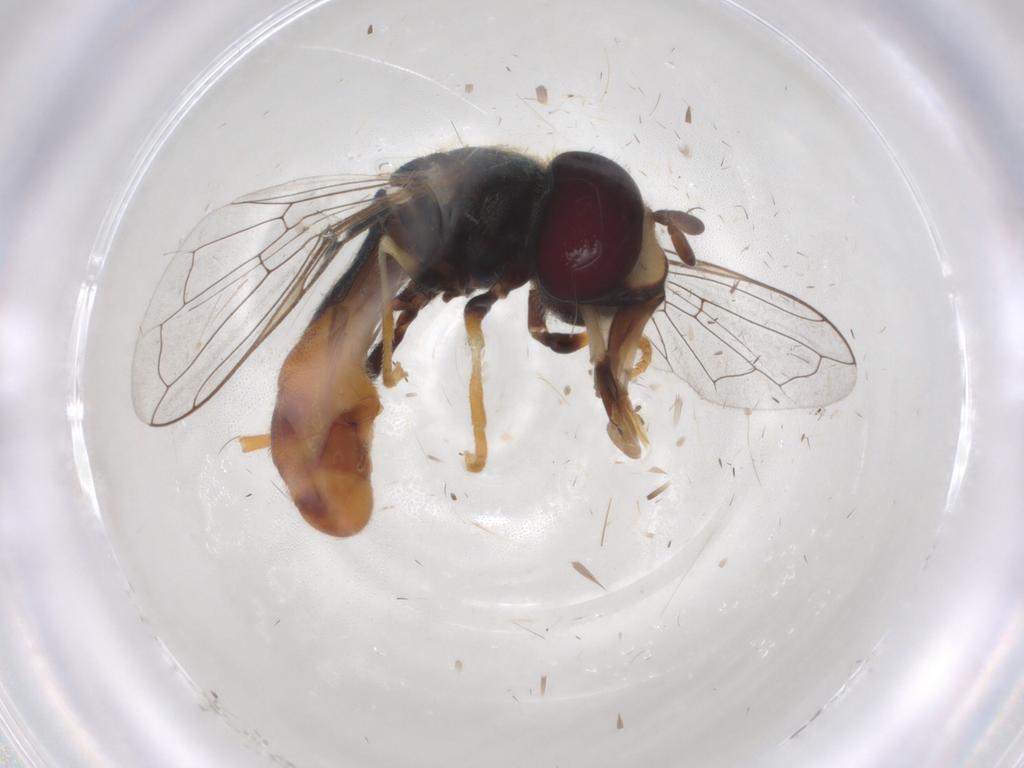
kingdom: Animalia
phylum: Arthropoda
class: Insecta
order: Diptera
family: Syrphidae
